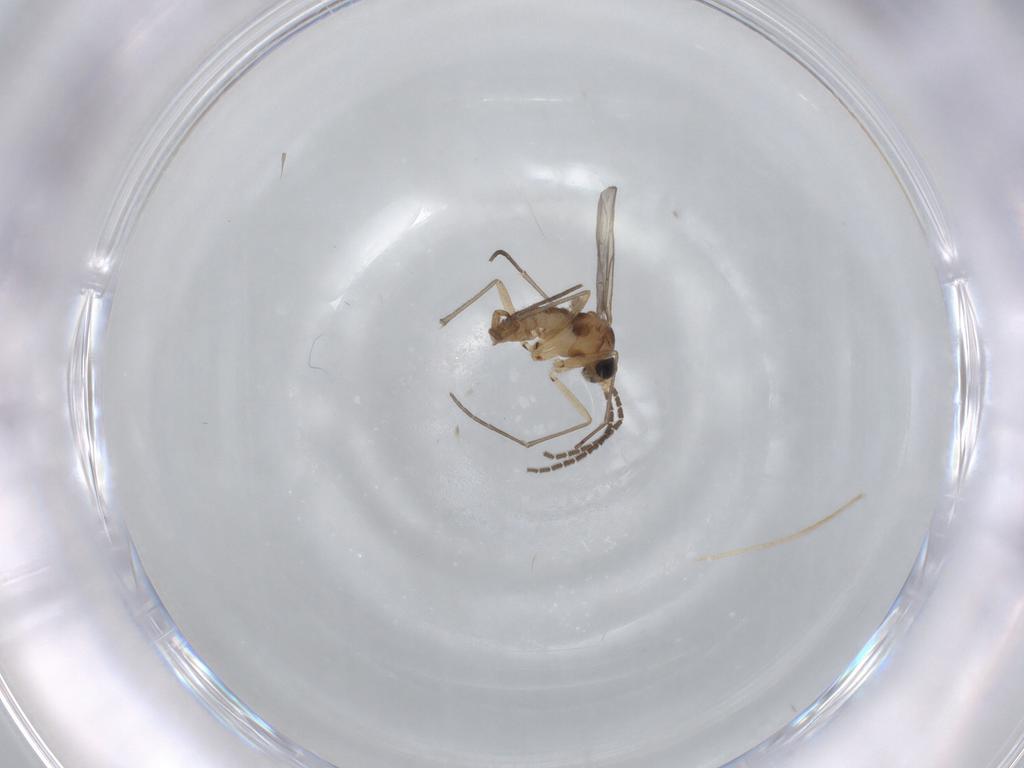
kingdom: Animalia
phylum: Arthropoda
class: Insecta
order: Diptera
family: Sciaridae
